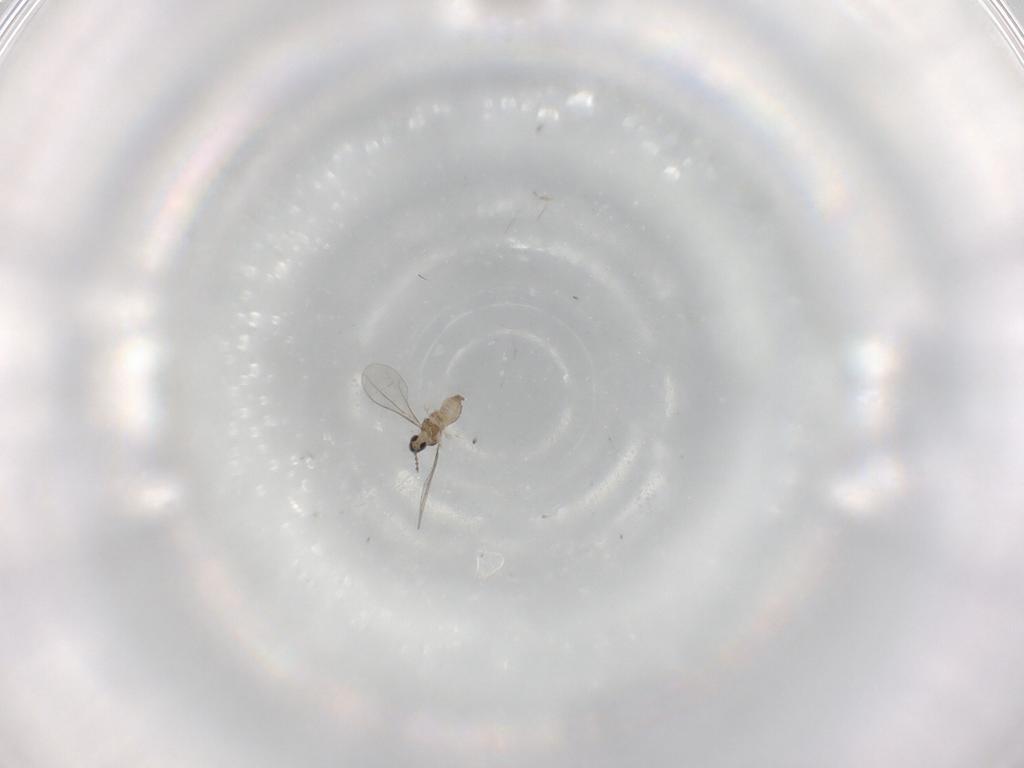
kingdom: Animalia
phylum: Arthropoda
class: Insecta
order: Diptera
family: Cecidomyiidae
